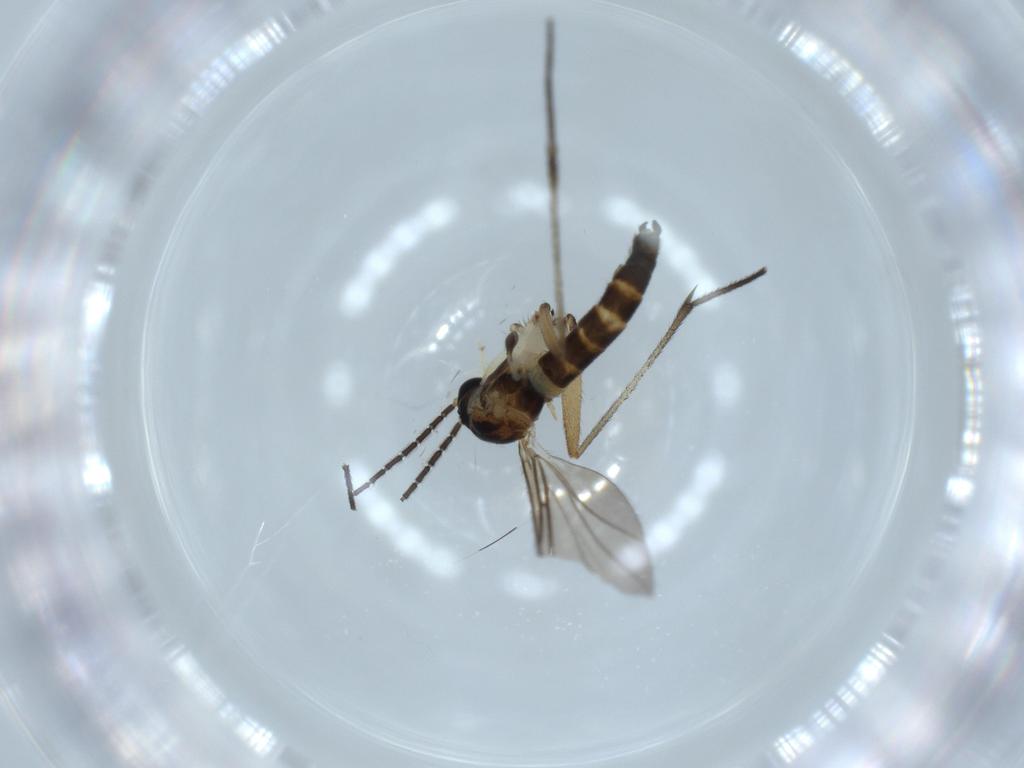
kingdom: Animalia
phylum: Arthropoda
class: Insecta
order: Diptera
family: Sciaridae
